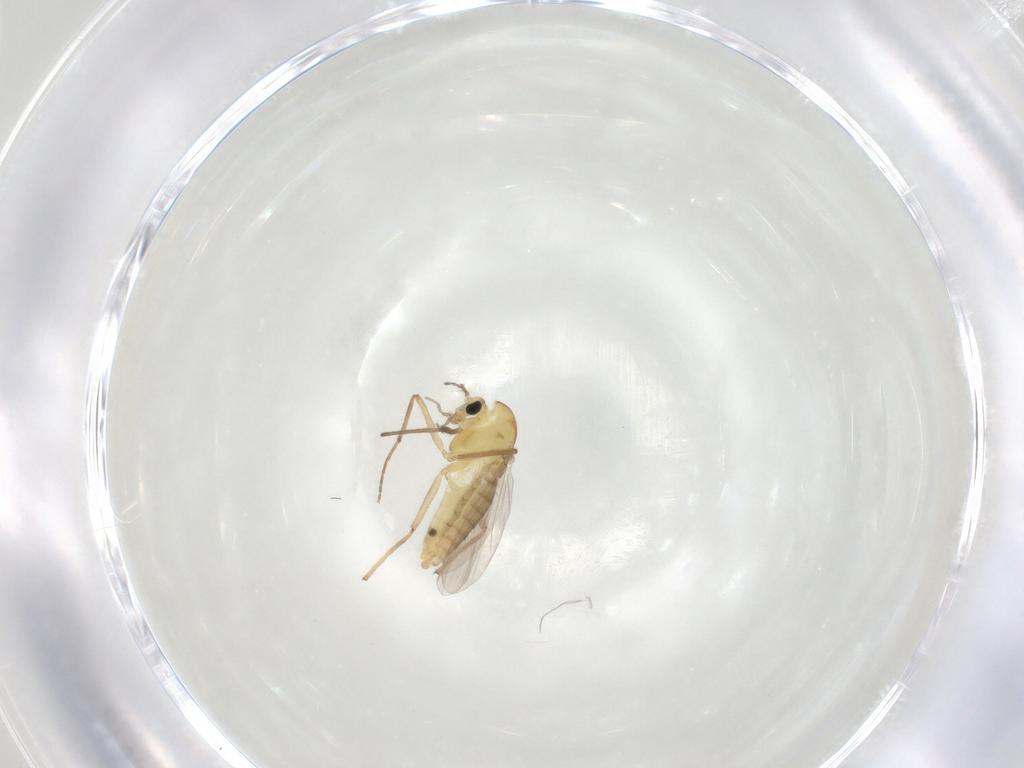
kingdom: Animalia
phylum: Arthropoda
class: Insecta
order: Diptera
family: Chironomidae
